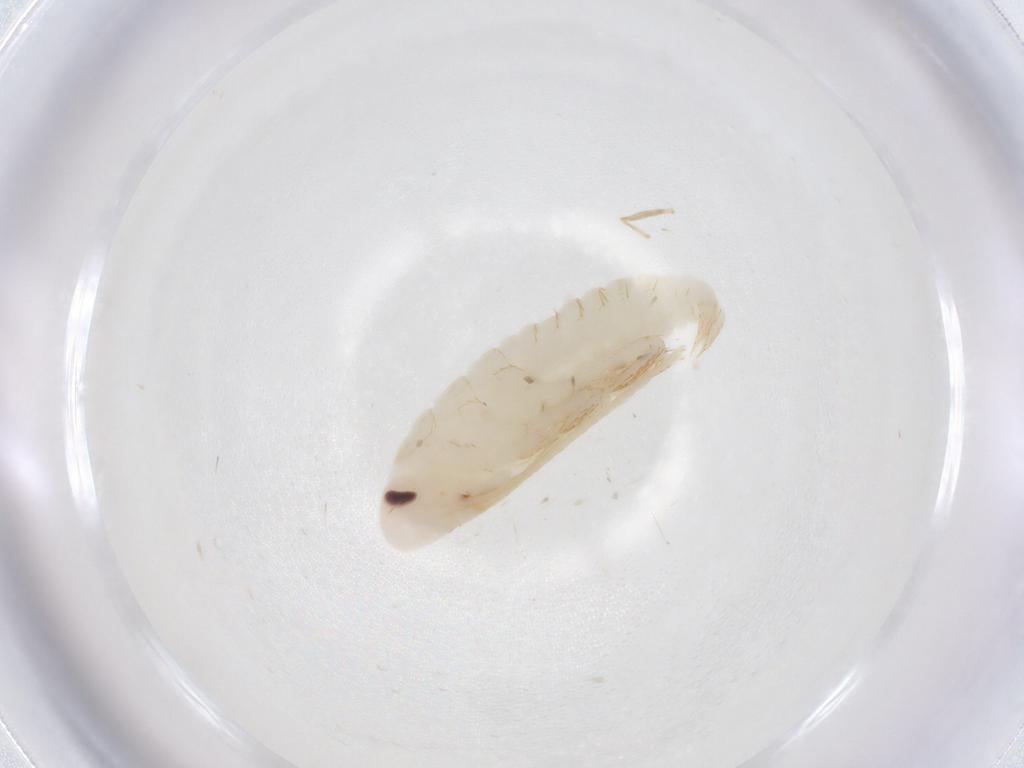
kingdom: Animalia
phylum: Arthropoda
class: Insecta
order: Blattodea
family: Ectobiidae
